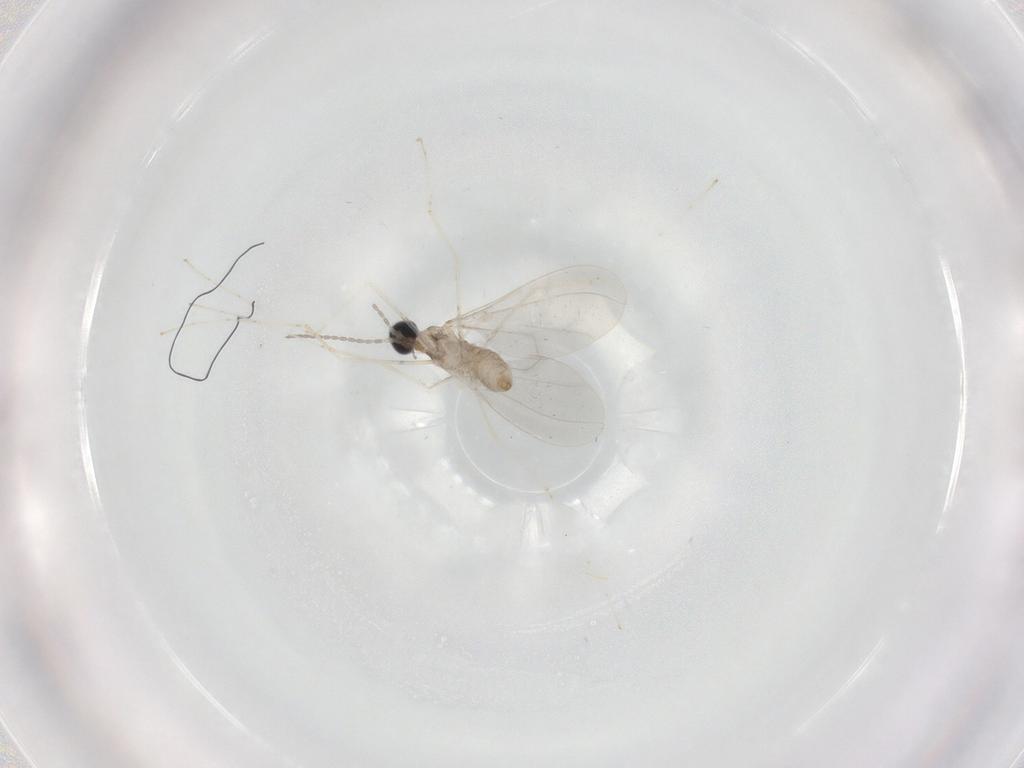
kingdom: Animalia
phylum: Arthropoda
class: Insecta
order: Diptera
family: Cecidomyiidae
